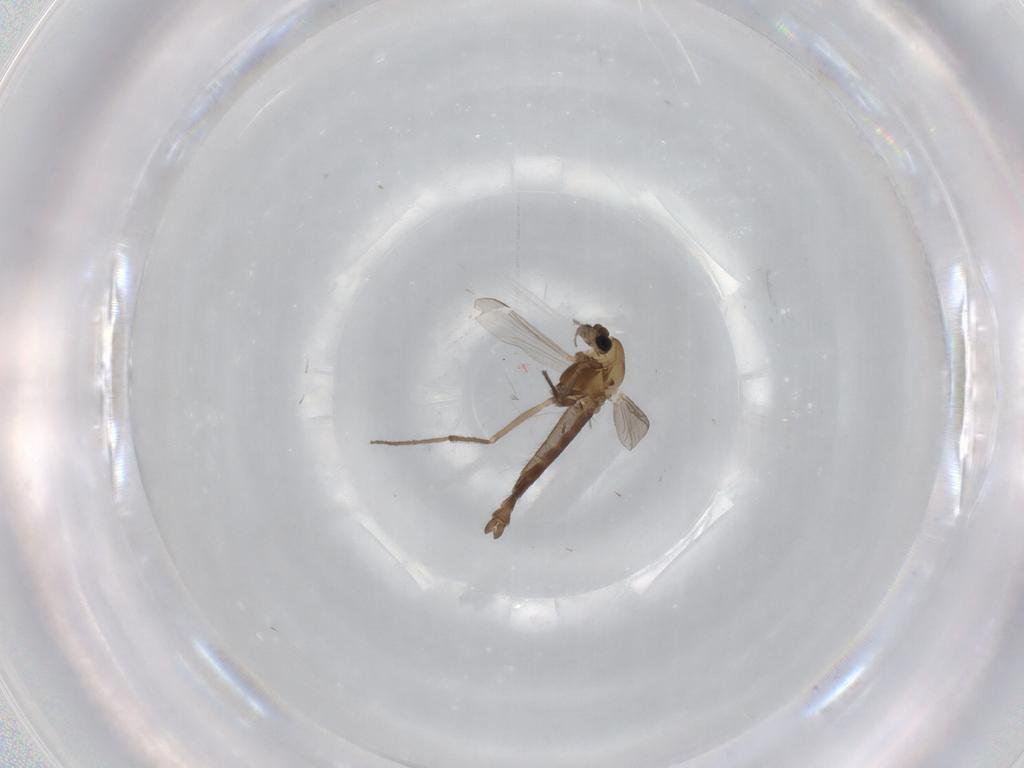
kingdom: Animalia
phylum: Arthropoda
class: Insecta
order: Diptera
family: Chironomidae
